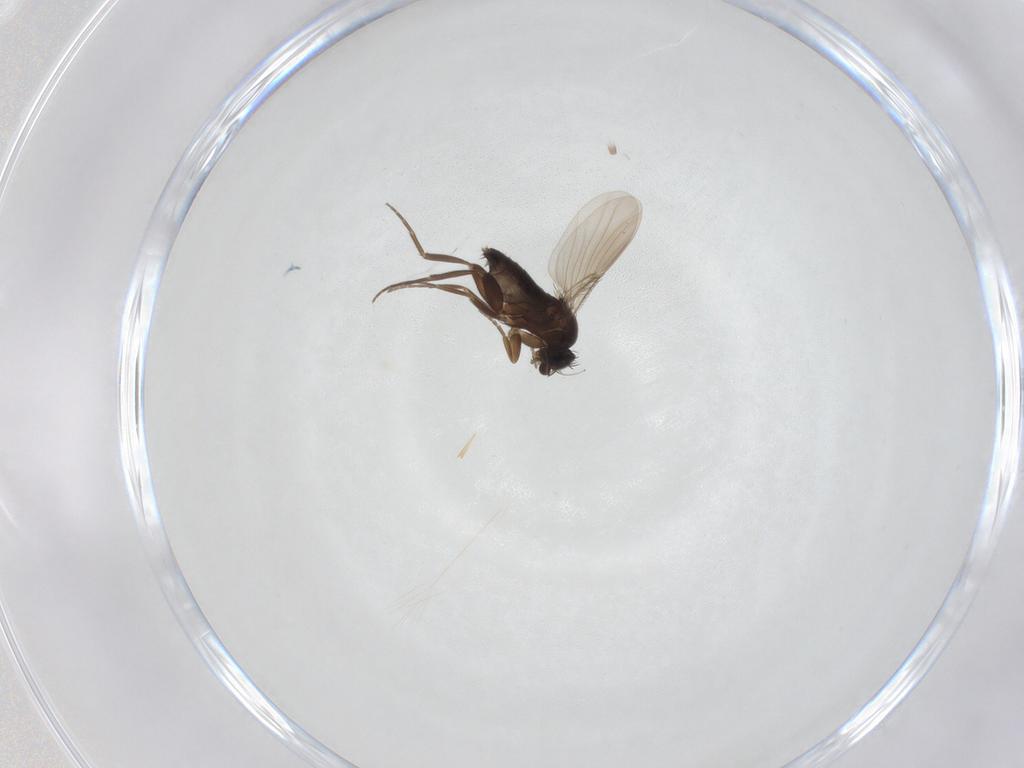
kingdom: Animalia
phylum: Arthropoda
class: Insecta
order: Diptera
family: Phoridae
